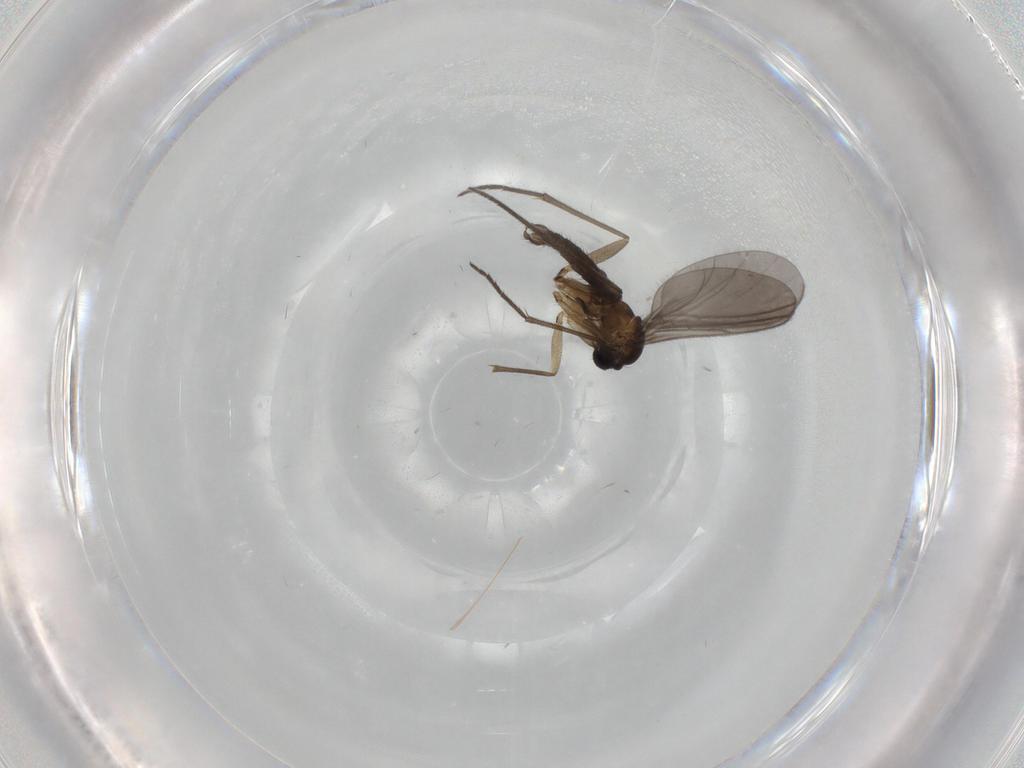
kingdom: Animalia
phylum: Arthropoda
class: Insecta
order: Diptera
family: Sciaridae
